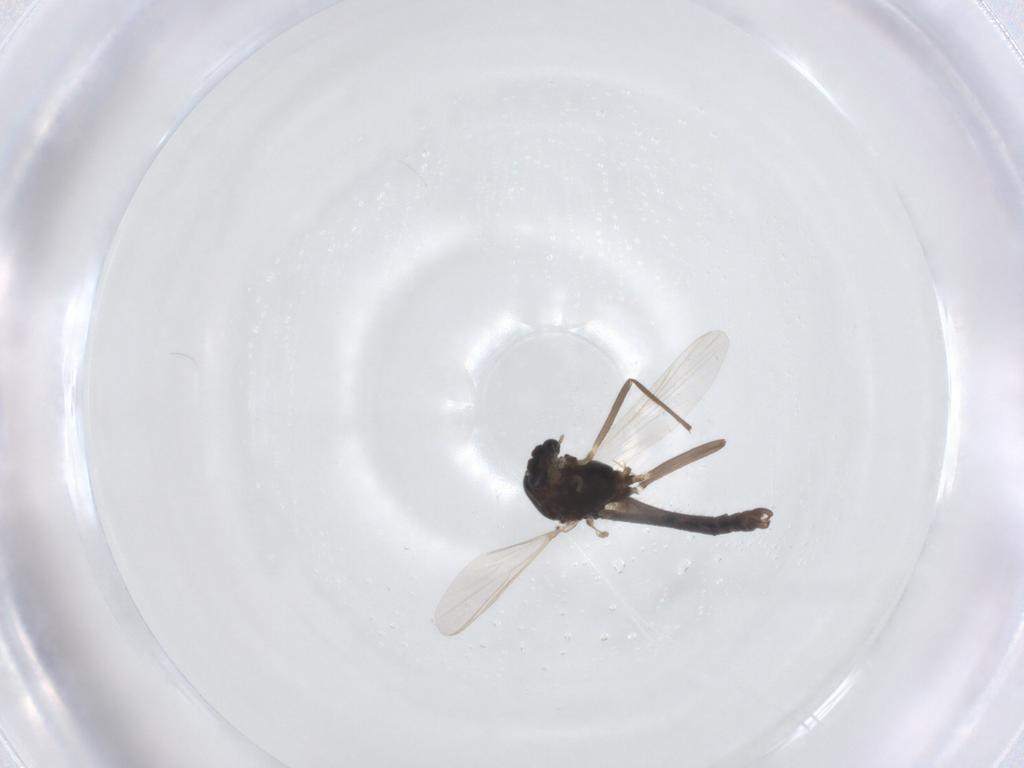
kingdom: Animalia
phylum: Arthropoda
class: Insecta
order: Diptera
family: Chironomidae
